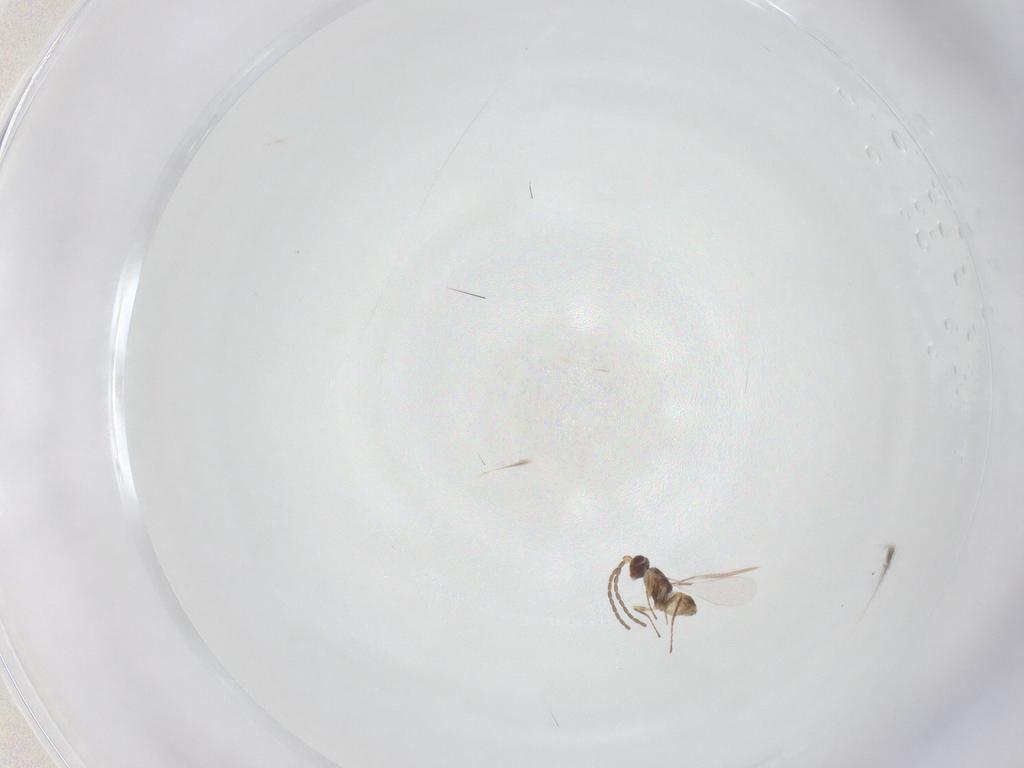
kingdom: Animalia
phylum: Arthropoda
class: Insecta
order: Hymenoptera
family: Mymaridae
